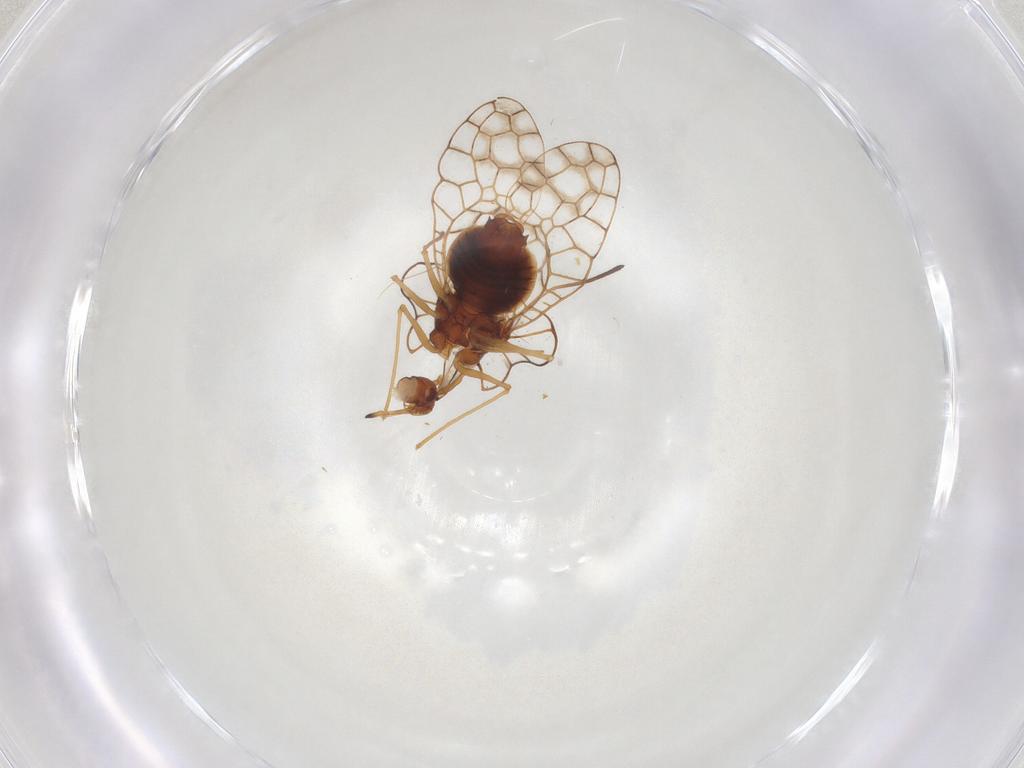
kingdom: Animalia
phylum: Arthropoda
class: Insecta
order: Hemiptera
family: Tingidae
